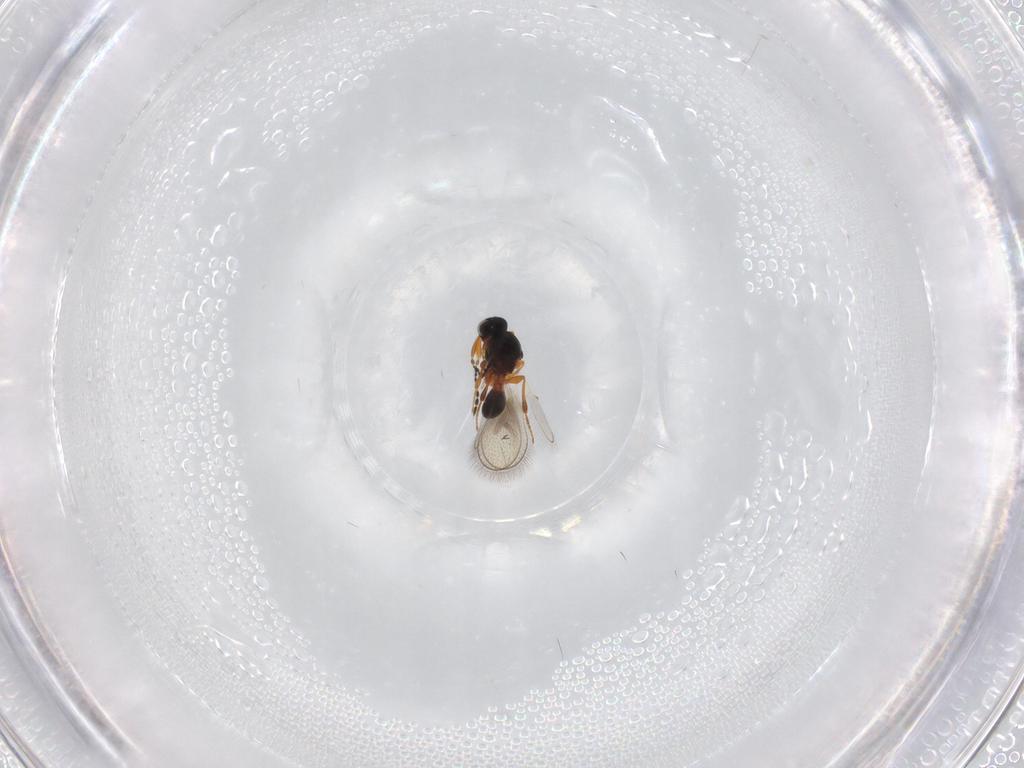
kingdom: Animalia
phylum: Arthropoda
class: Insecta
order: Hymenoptera
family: Platygastridae
